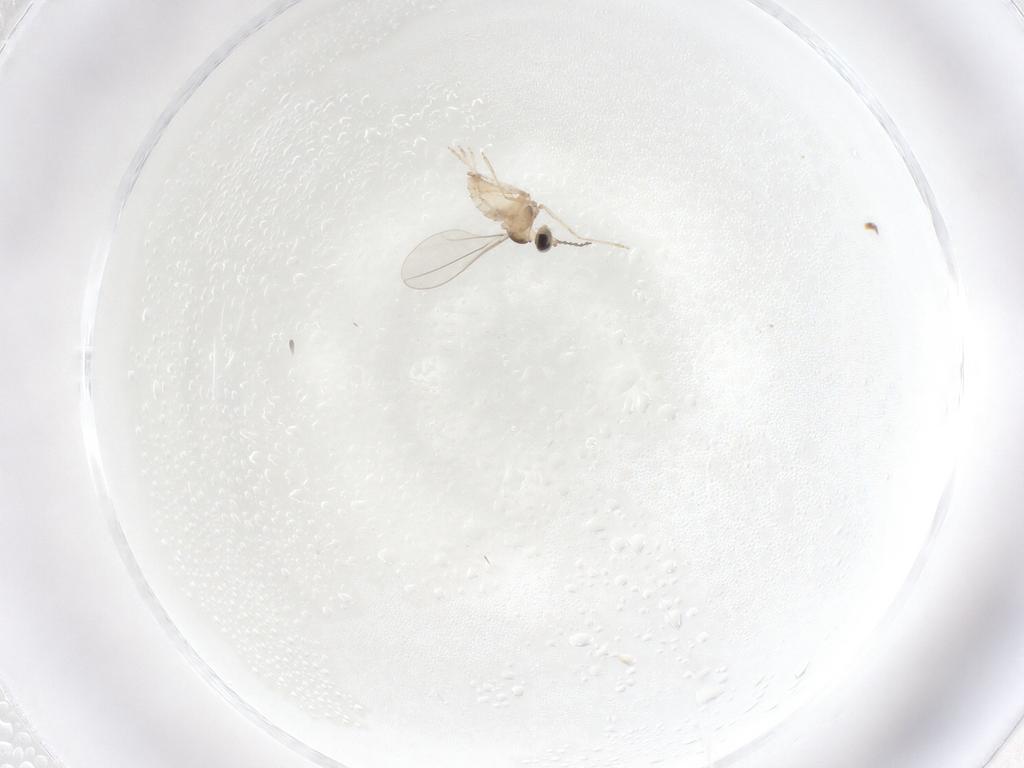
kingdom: Animalia
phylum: Arthropoda
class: Insecta
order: Diptera
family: Cecidomyiidae
